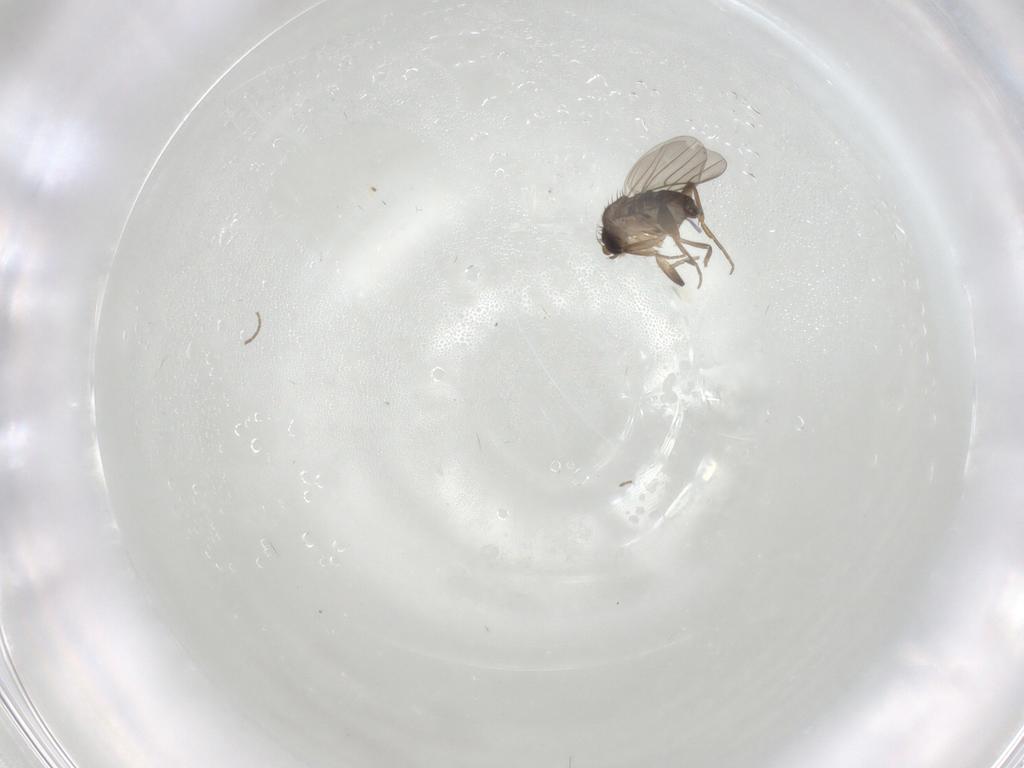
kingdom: Animalia
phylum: Arthropoda
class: Insecta
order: Diptera
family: Phoridae
